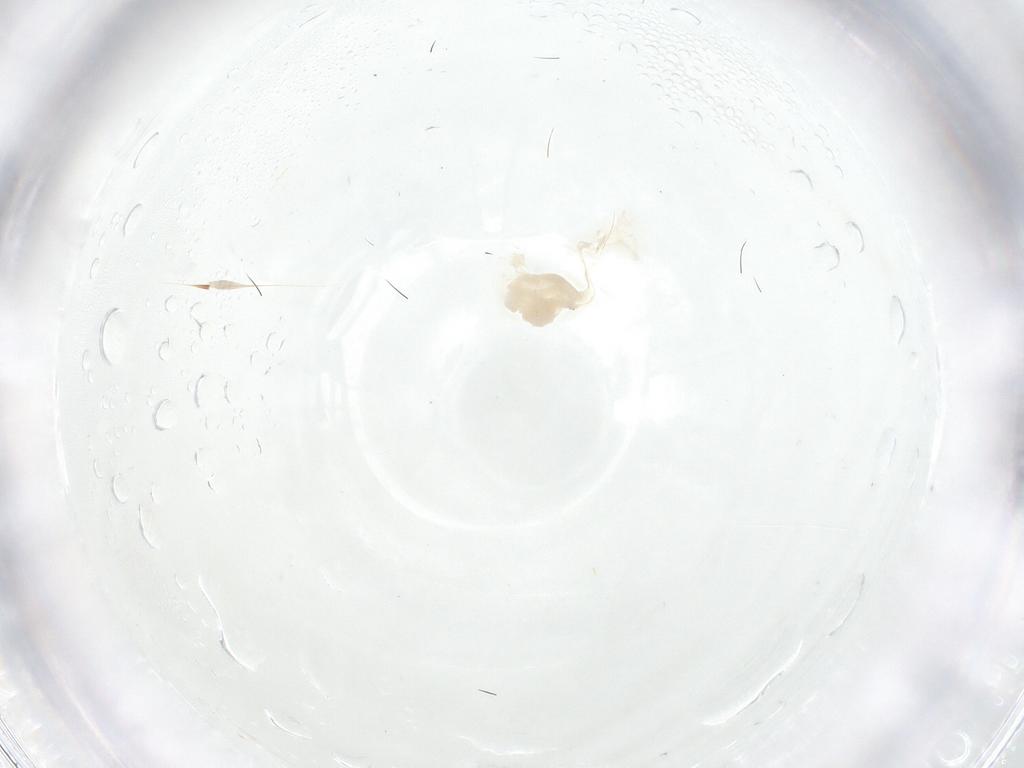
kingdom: Animalia
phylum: Arthropoda
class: Insecta
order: Diptera
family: Asilidae
